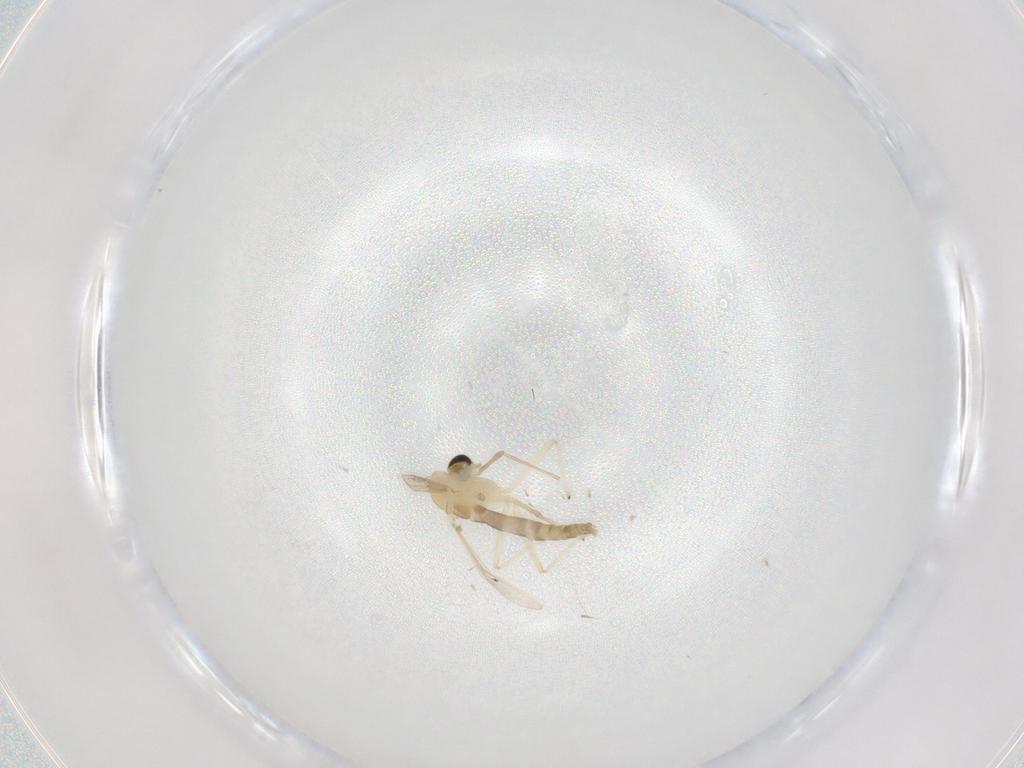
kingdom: Animalia
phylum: Arthropoda
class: Insecta
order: Diptera
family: Chironomidae
